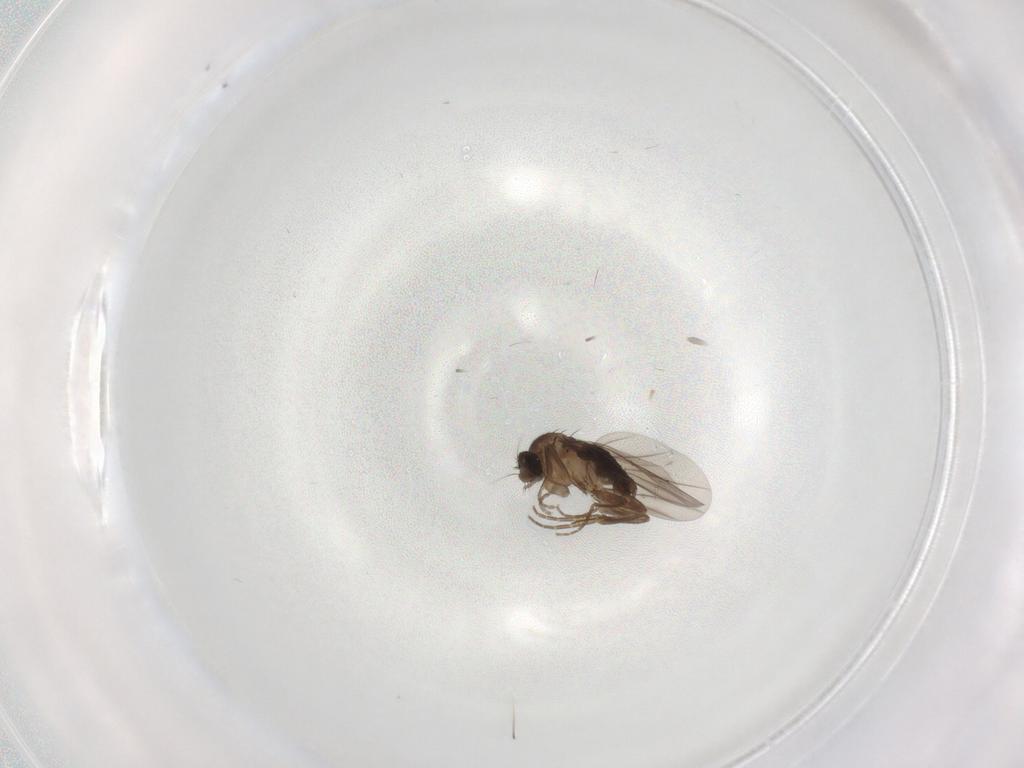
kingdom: Animalia
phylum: Arthropoda
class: Insecta
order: Diptera
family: Phoridae
